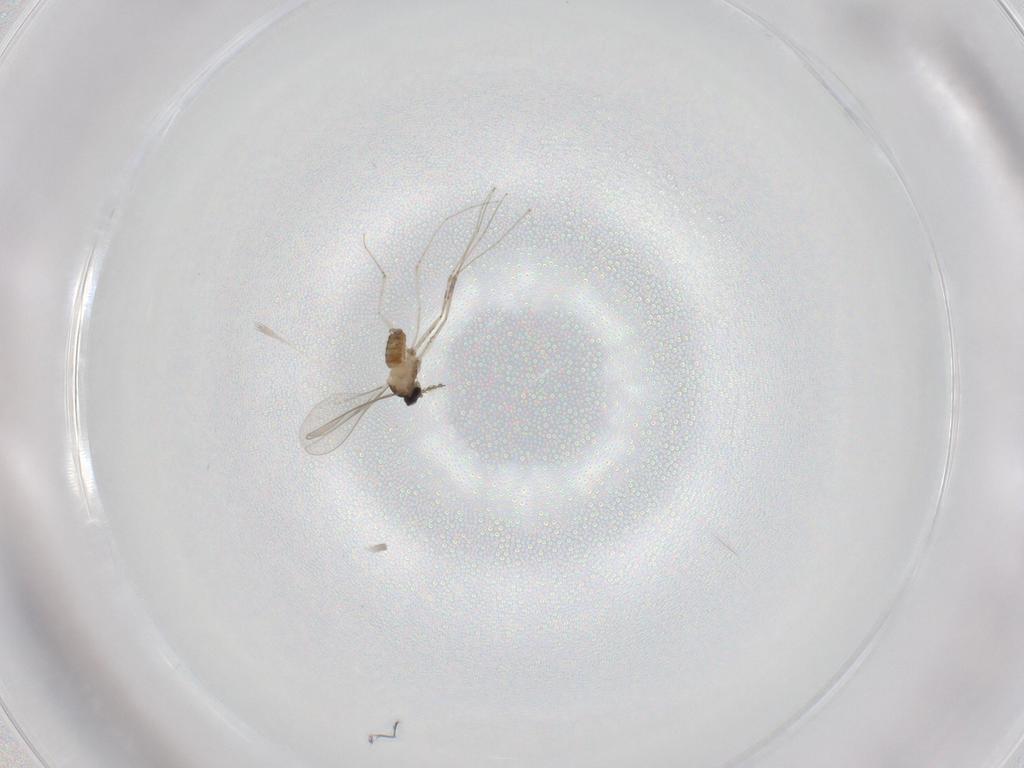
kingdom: Animalia
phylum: Arthropoda
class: Insecta
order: Diptera
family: Cecidomyiidae
